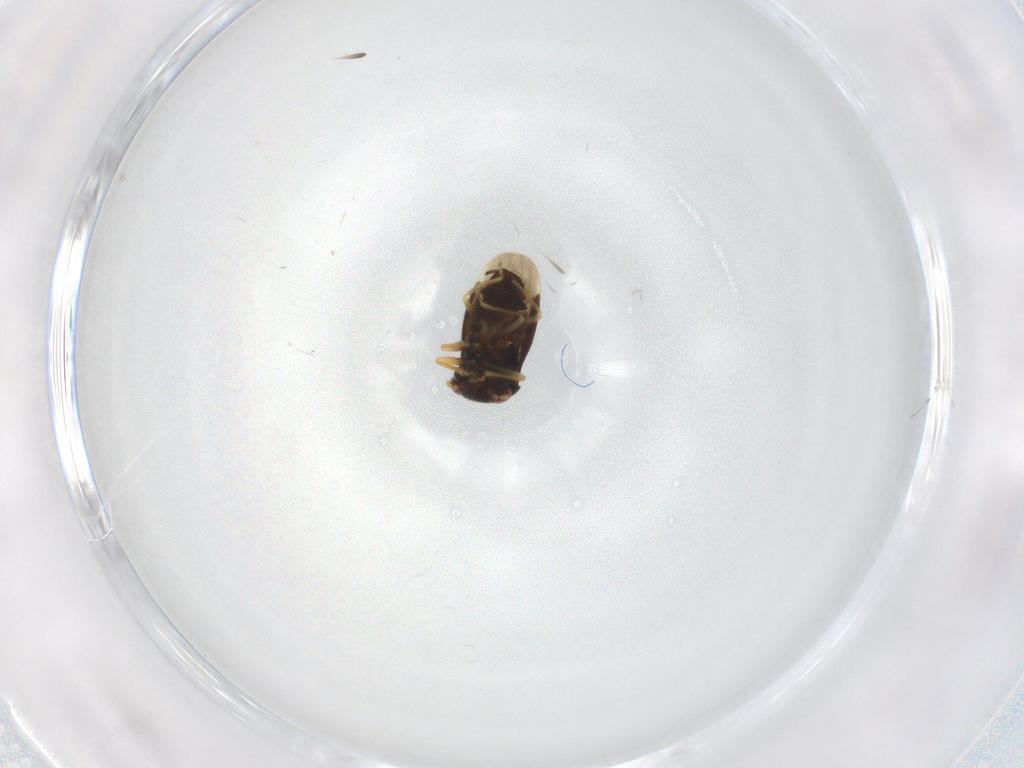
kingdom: Animalia
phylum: Arthropoda
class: Insecta
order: Hemiptera
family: Schizopteridae
